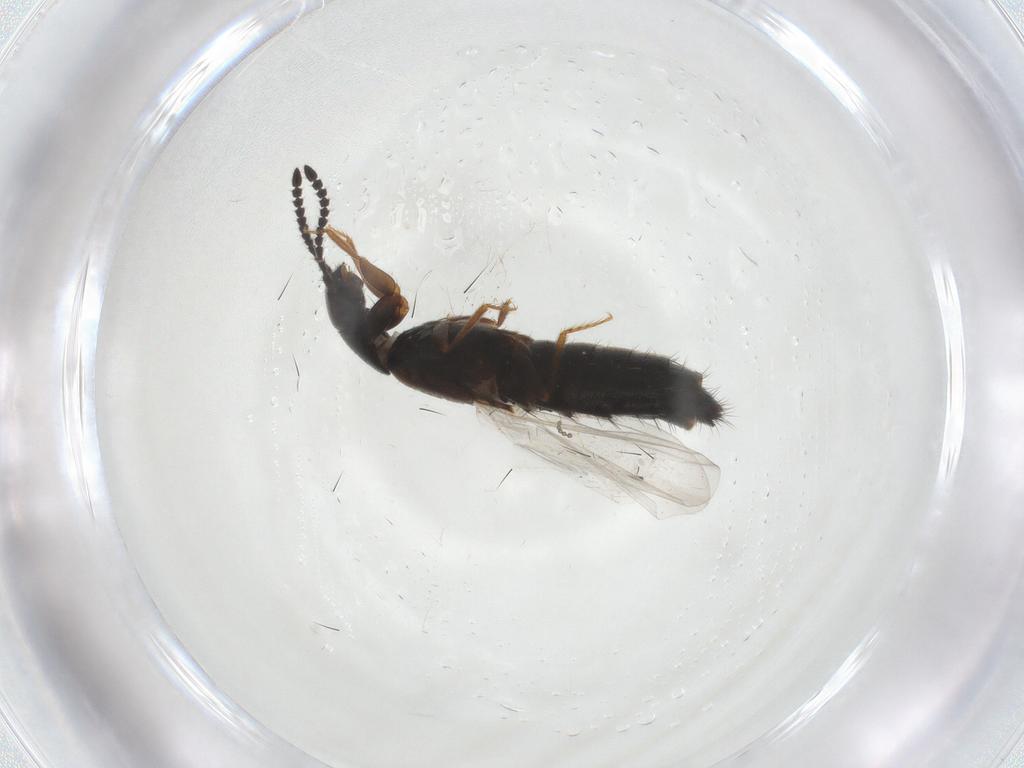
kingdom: Animalia
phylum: Arthropoda
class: Insecta
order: Coleoptera
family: Staphylinidae
